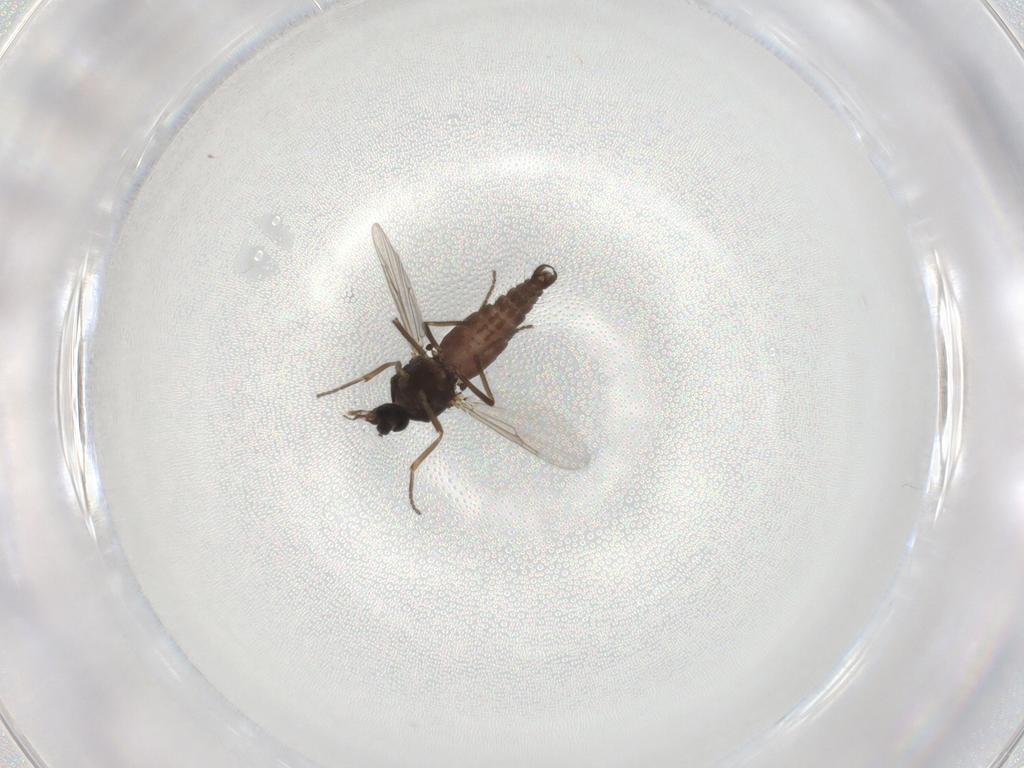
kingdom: Animalia
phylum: Arthropoda
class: Insecta
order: Diptera
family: Ceratopogonidae
